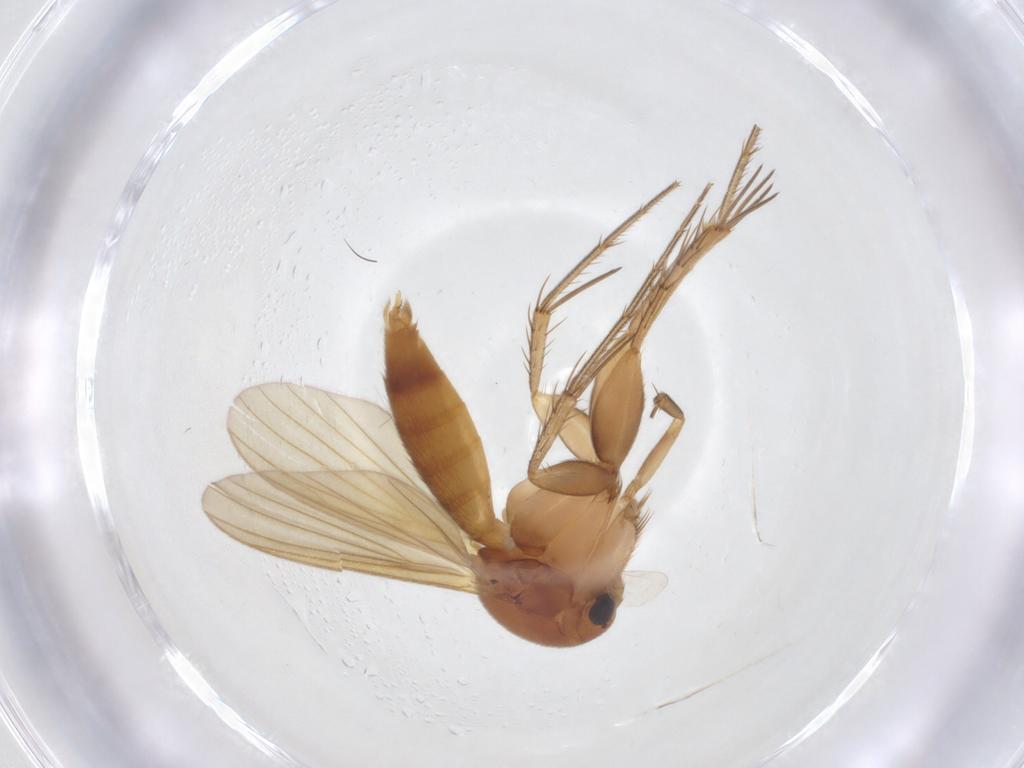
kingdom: Animalia
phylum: Arthropoda
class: Insecta
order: Diptera
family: Mycetophilidae
